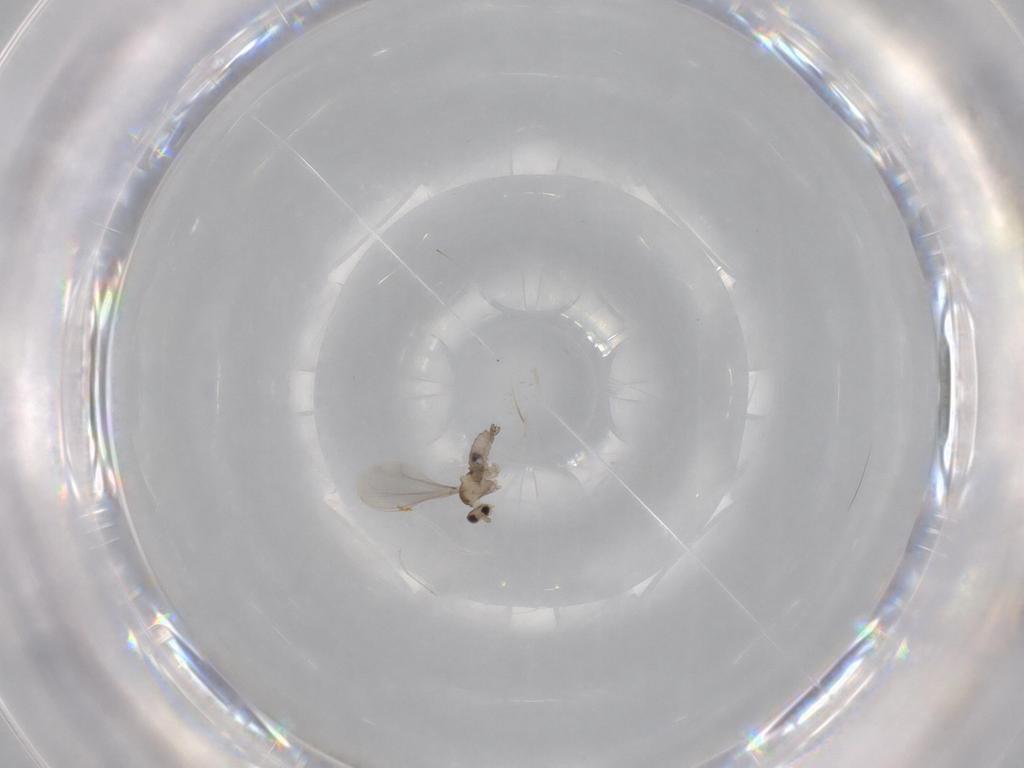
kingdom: Animalia
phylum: Arthropoda
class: Insecta
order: Diptera
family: Cecidomyiidae
